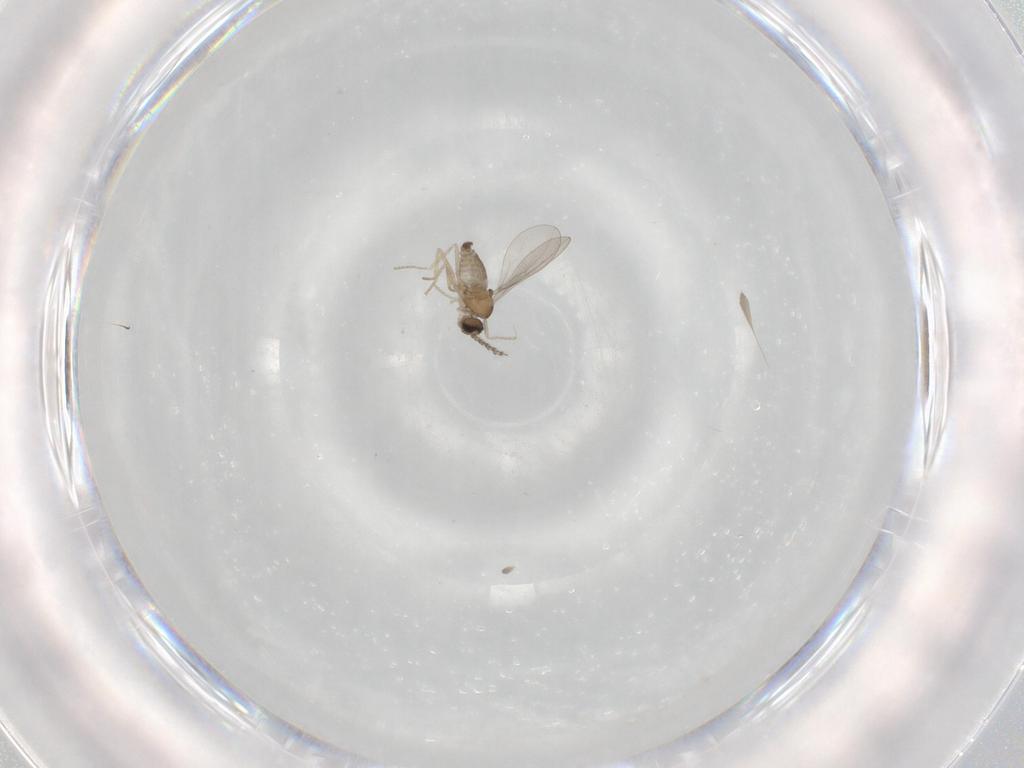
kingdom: Animalia
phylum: Arthropoda
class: Insecta
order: Diptera
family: Cecidomyiidae
